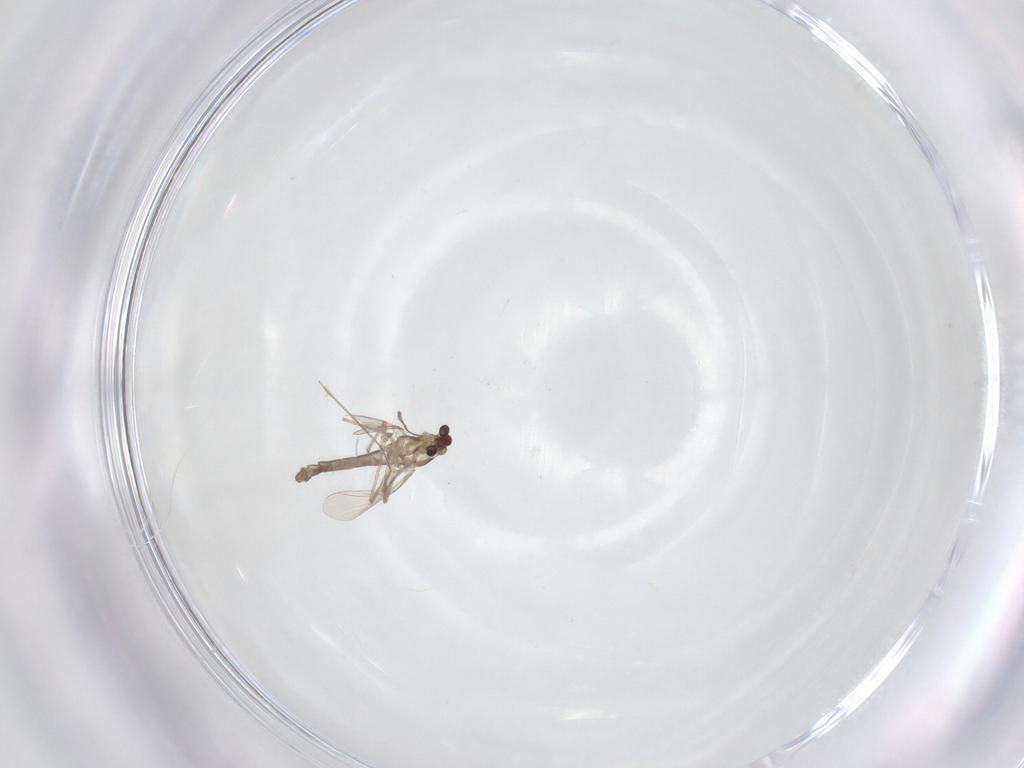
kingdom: Animalia
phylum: Arthropoda
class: Insecta
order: Diptera
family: Chironomidae
